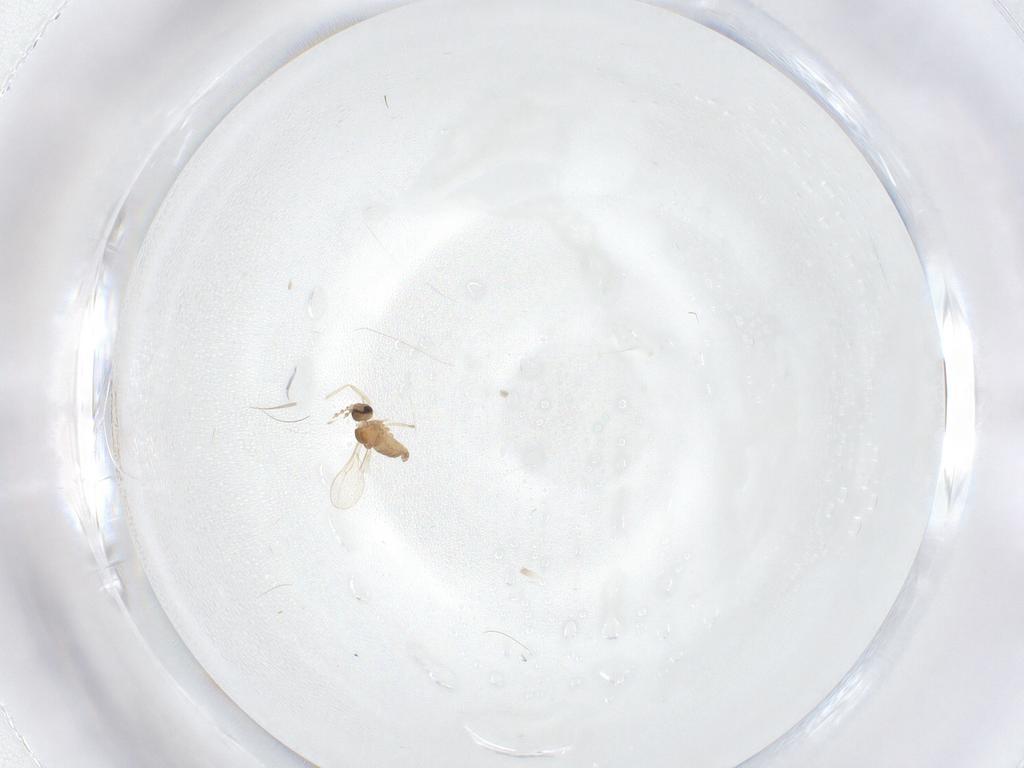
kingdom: Animalia
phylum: Arthropoda
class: Insecta
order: Diptera
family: Cecidomyiidae
